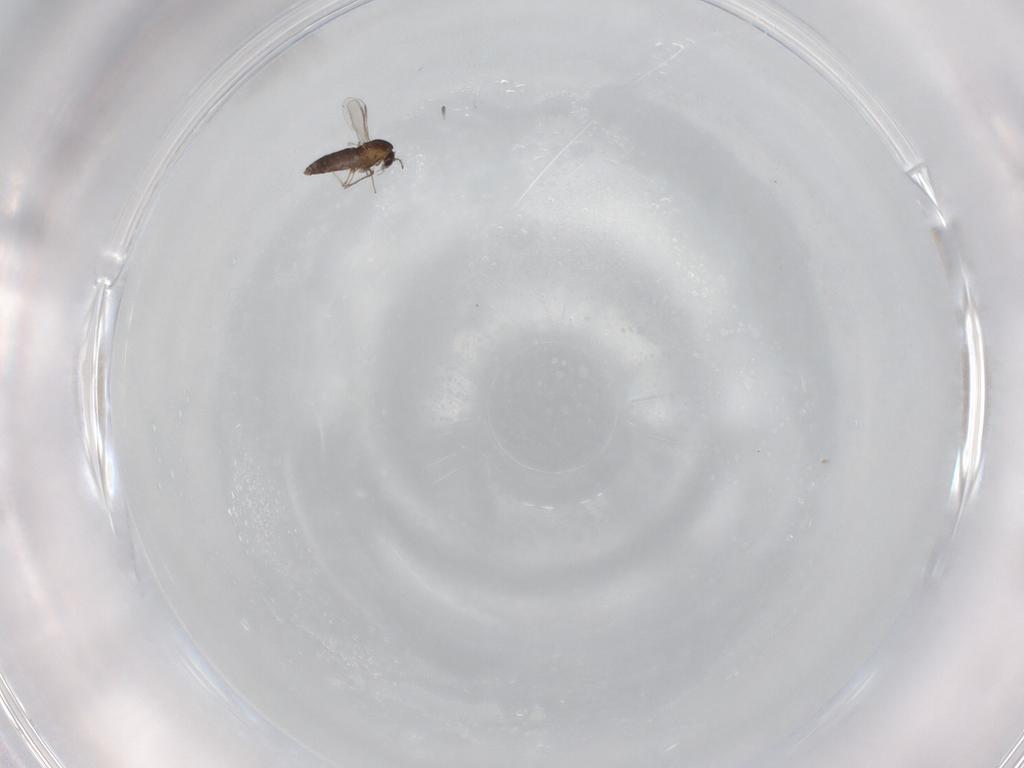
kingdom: Animalia
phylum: Arthropoda
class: Insecta
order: Diptera
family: Chironomidae
